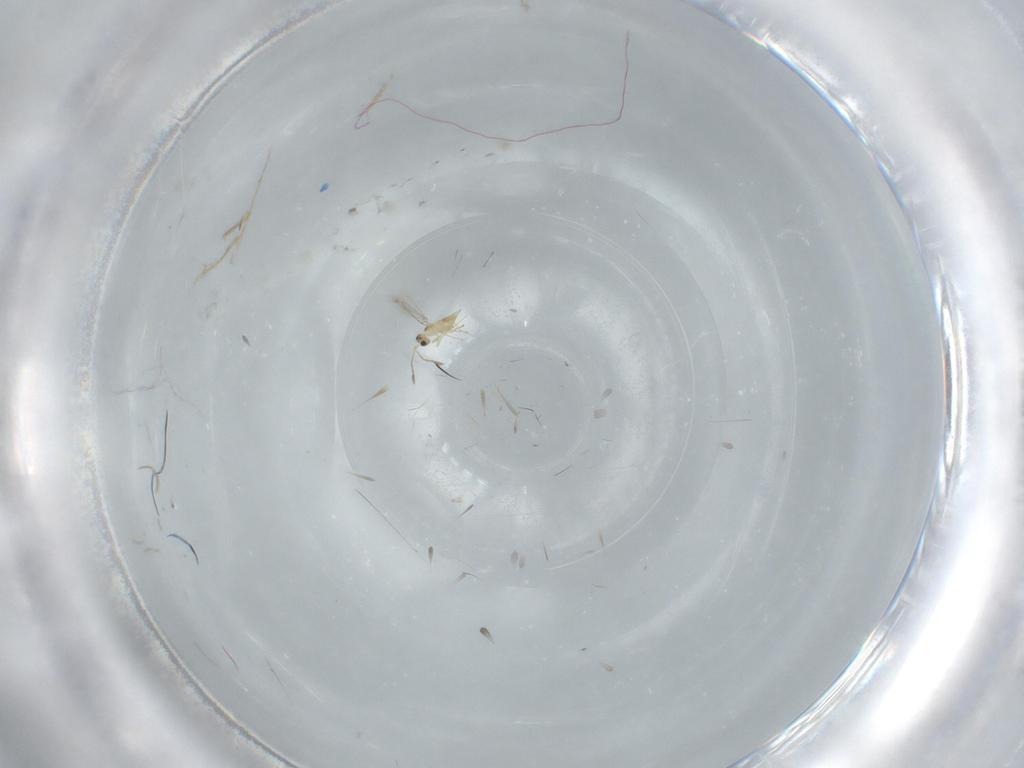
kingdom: Animalia
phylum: Arthropoda
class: Insecta
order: Hymenoptera
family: Mymaridae
